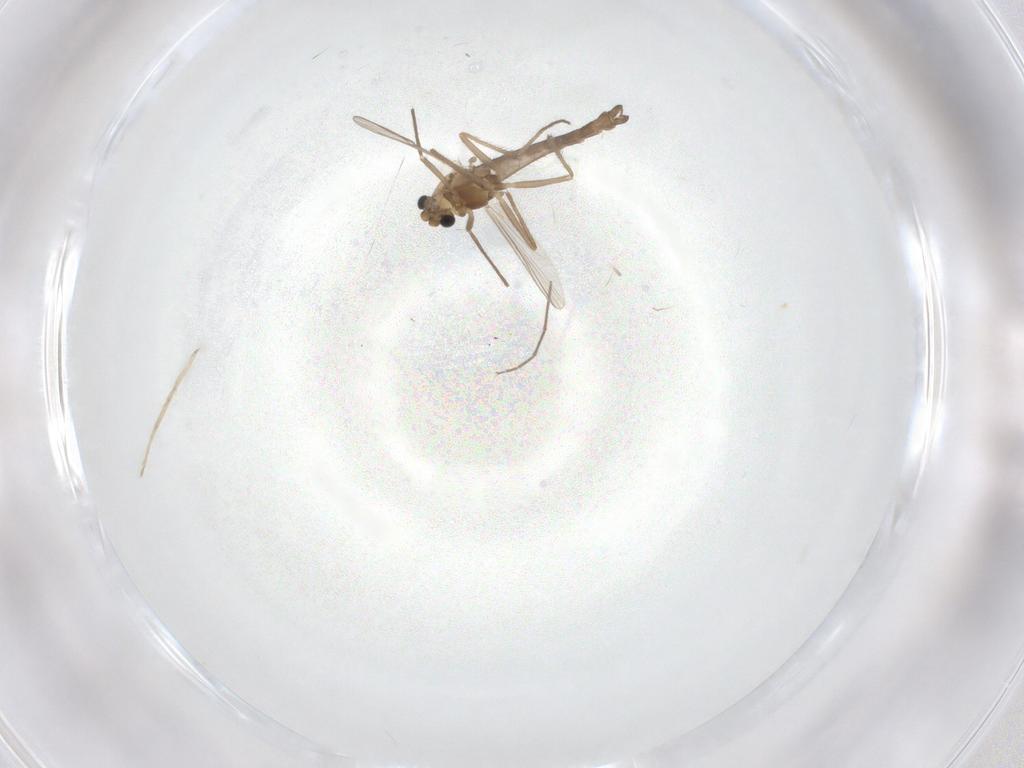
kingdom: Animalia
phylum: Arthropoda
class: Insecta
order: Diptera
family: Chironomidae
